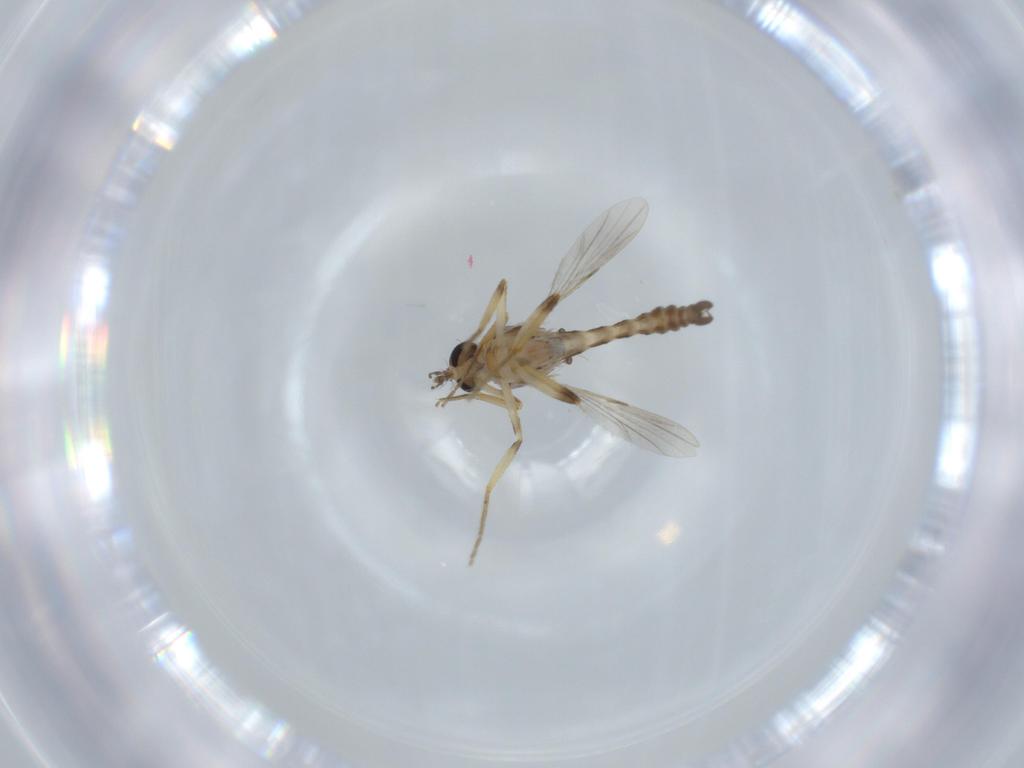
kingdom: Animalia
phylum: Arthropoda
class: Insecta
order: Diptera
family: Ceratopogonidae
